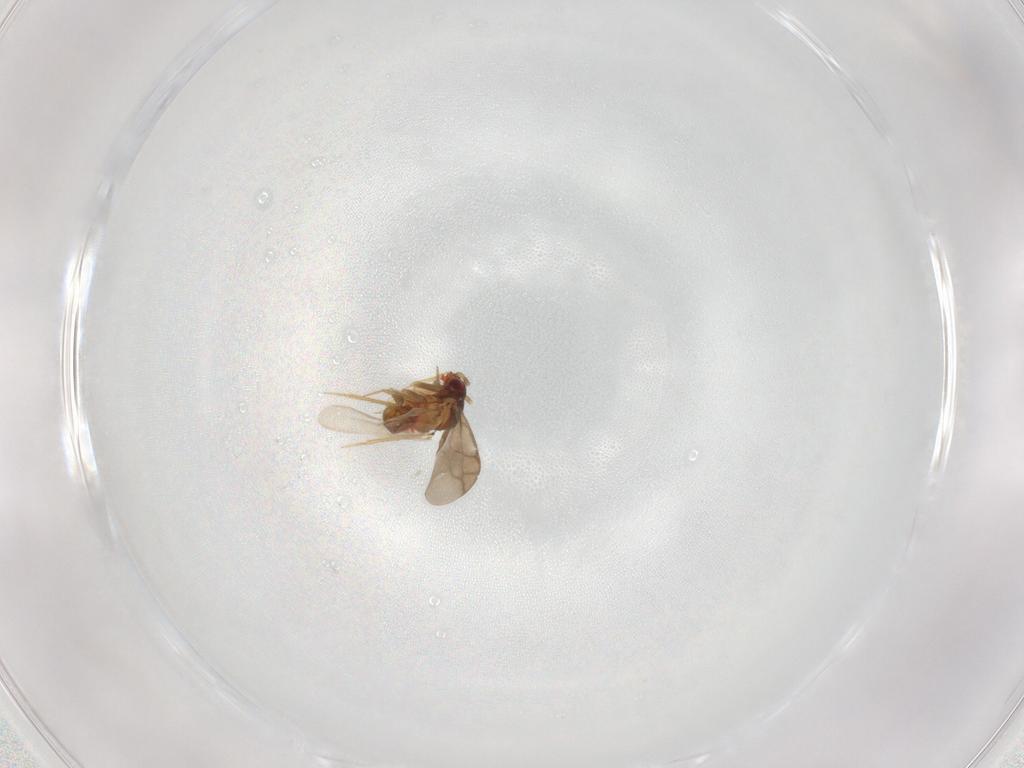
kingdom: Animalia
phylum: Arthropoda
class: Insecta
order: Hemiptera
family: Ceratocombidae
